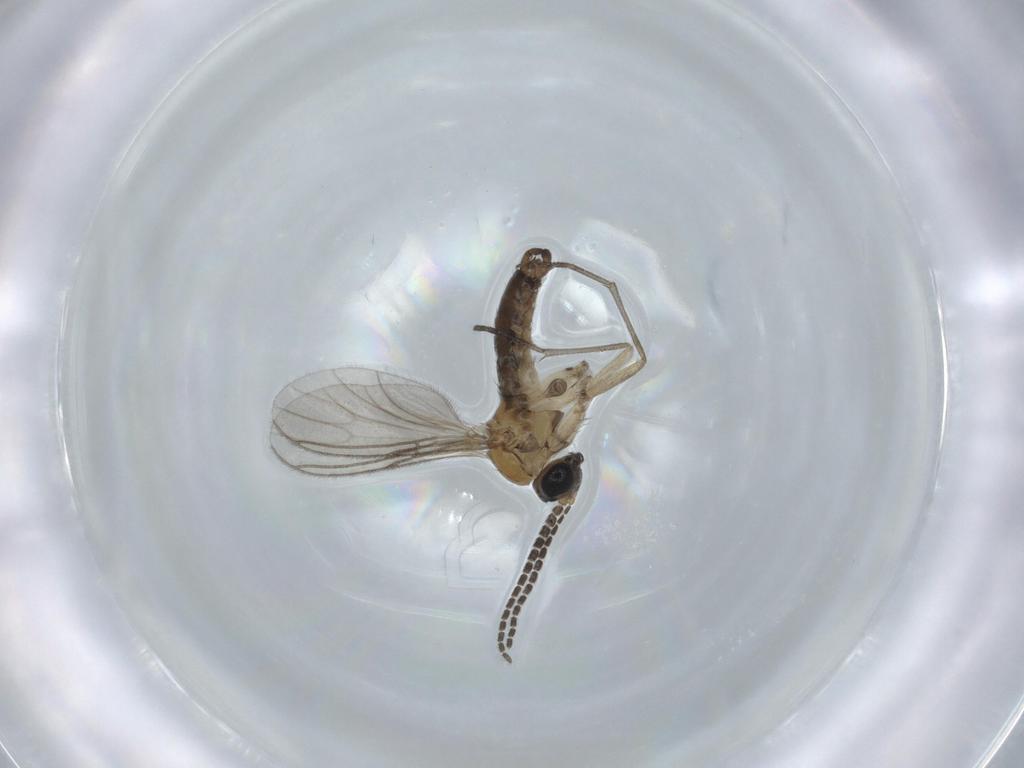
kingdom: Animalia
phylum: Arthropoda
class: Insecta
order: Diptera
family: Dolichopodidae
